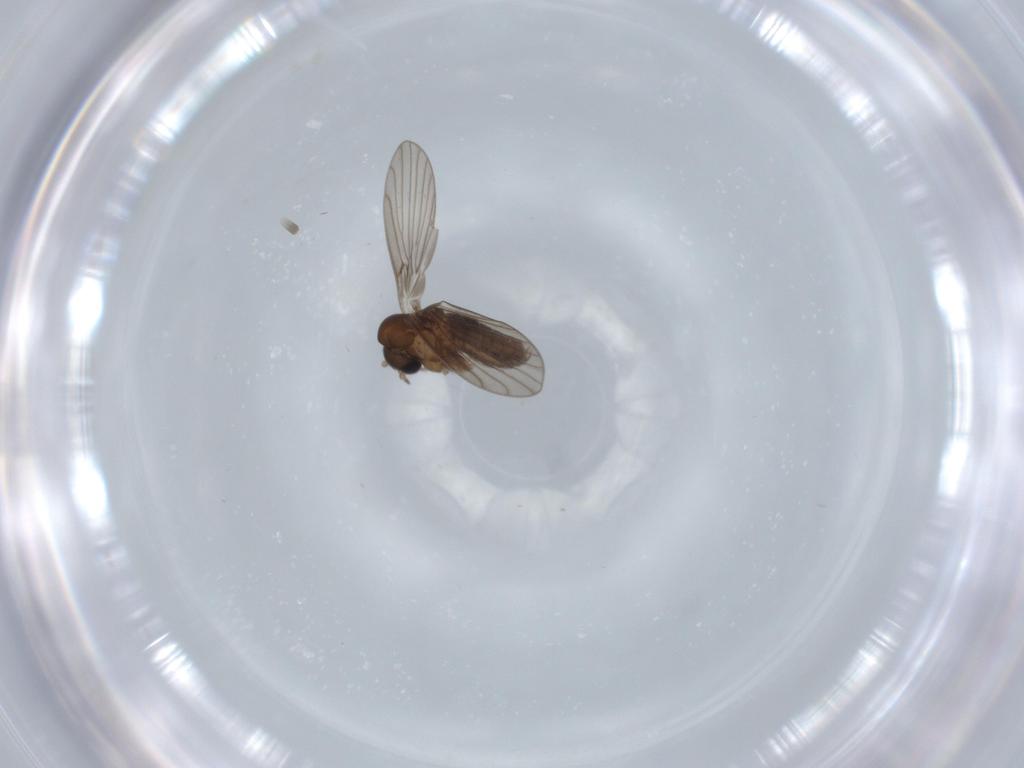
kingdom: Animalia
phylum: Arthropoda
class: Insecta
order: Diptera
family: Psychodidae
